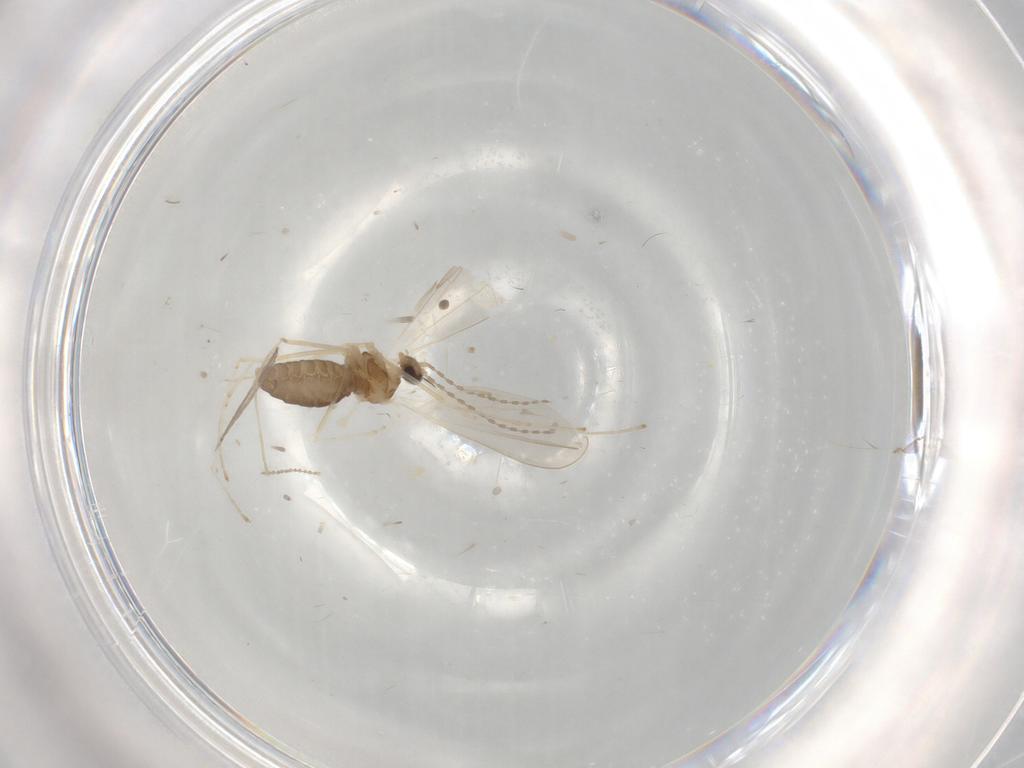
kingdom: Animalia
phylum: Arthropoda
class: Insecta
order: Diptera
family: Cecidomyiidae
